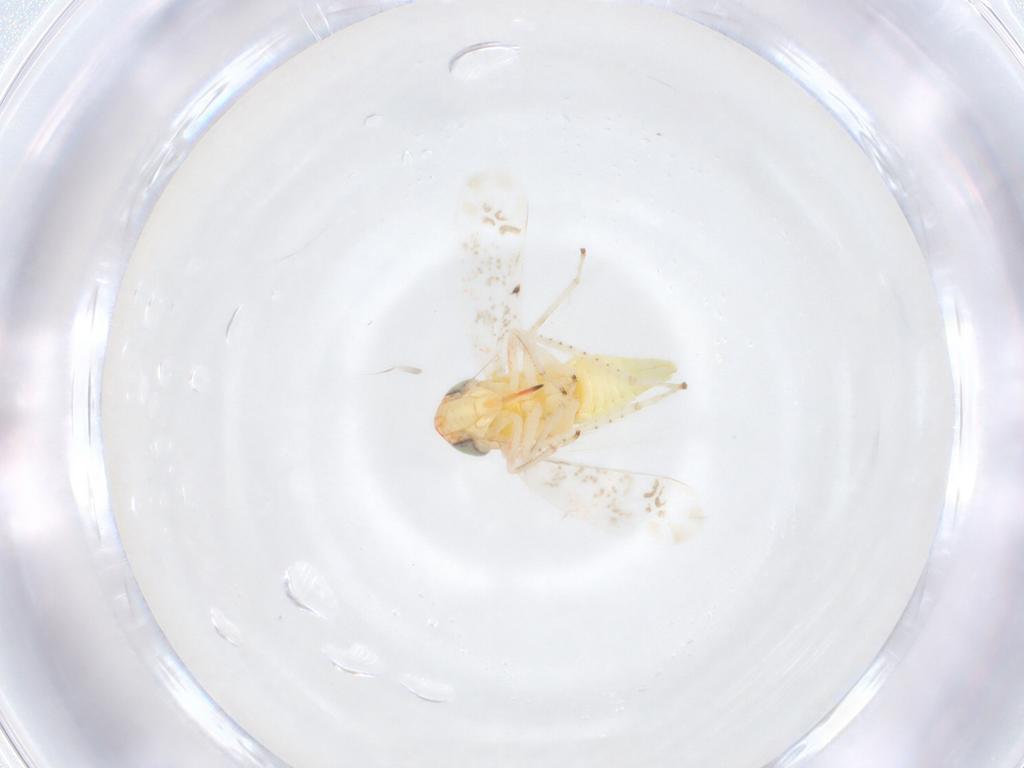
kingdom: Animalia
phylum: Arthropoda
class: Insecta
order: Hemiptera
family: Cicadellidae
